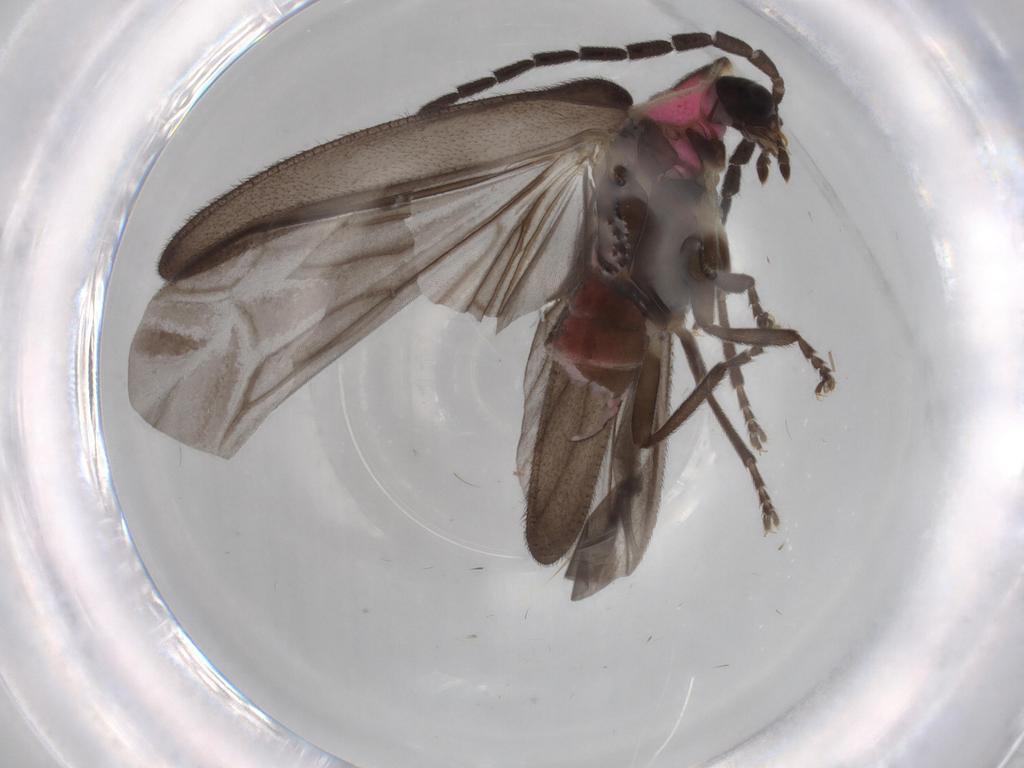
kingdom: Animalia
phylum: Arthropoda
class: Insecta
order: Coleoptera
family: Lampyridae
